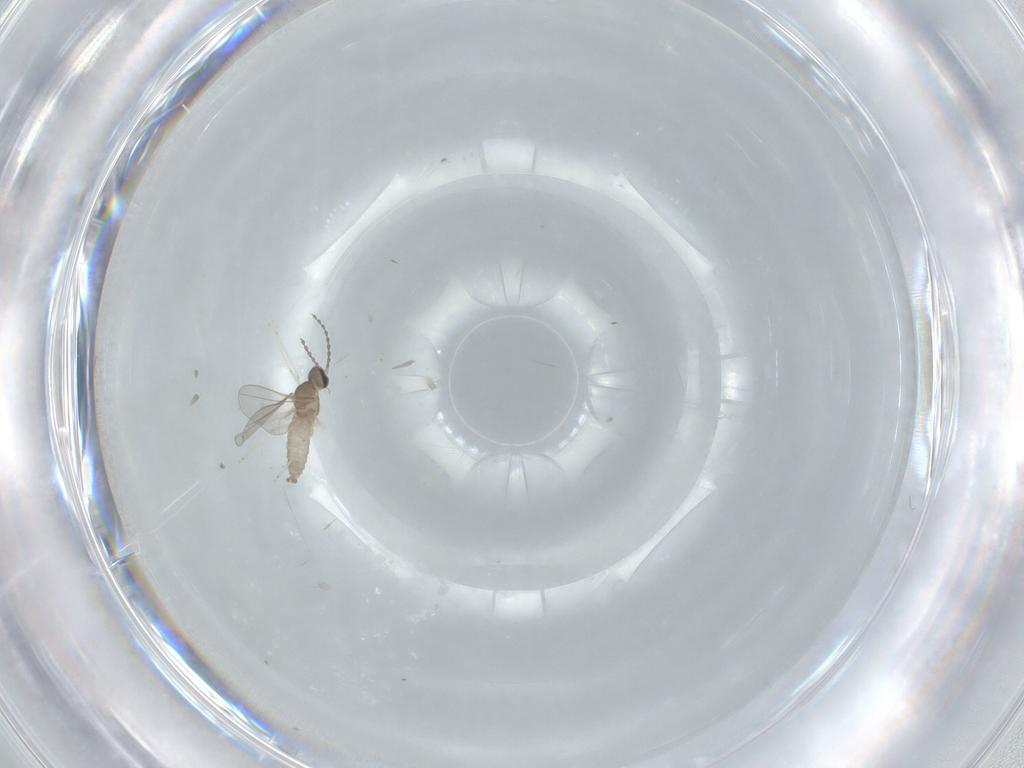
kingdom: Animalia
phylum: Arthropoda
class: Insecta
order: Diptera
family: Cecidomyiidae
